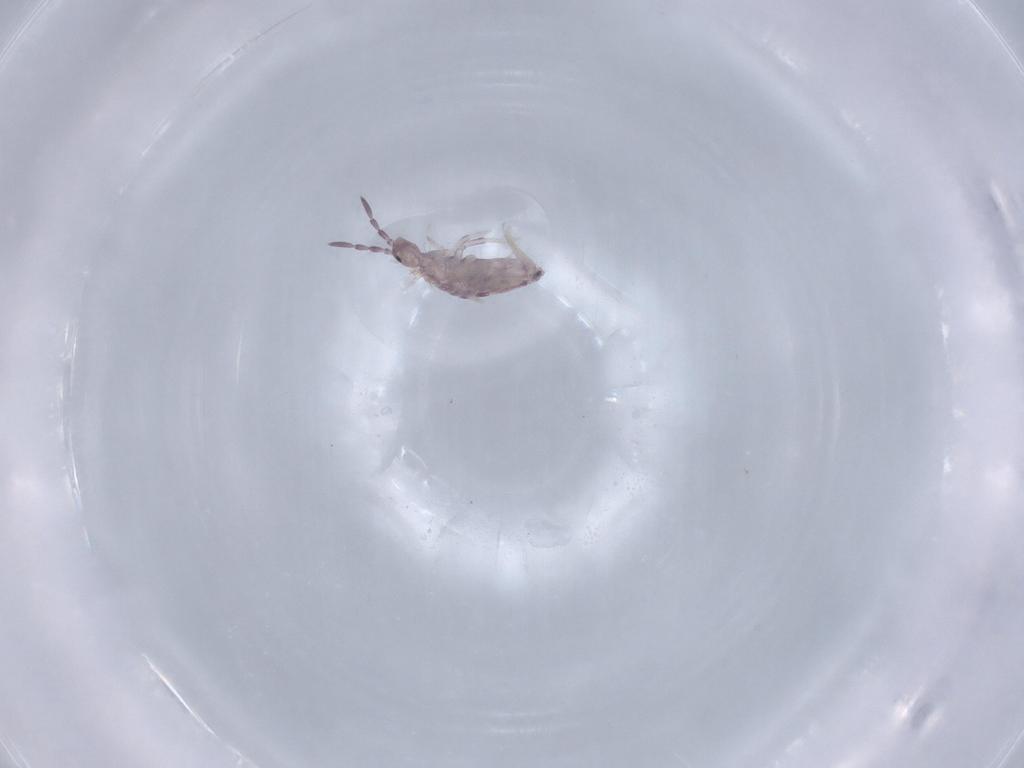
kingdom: Animalia
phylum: Arthropoda
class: Collembola
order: Poduromorpha
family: Hypogastruridae
